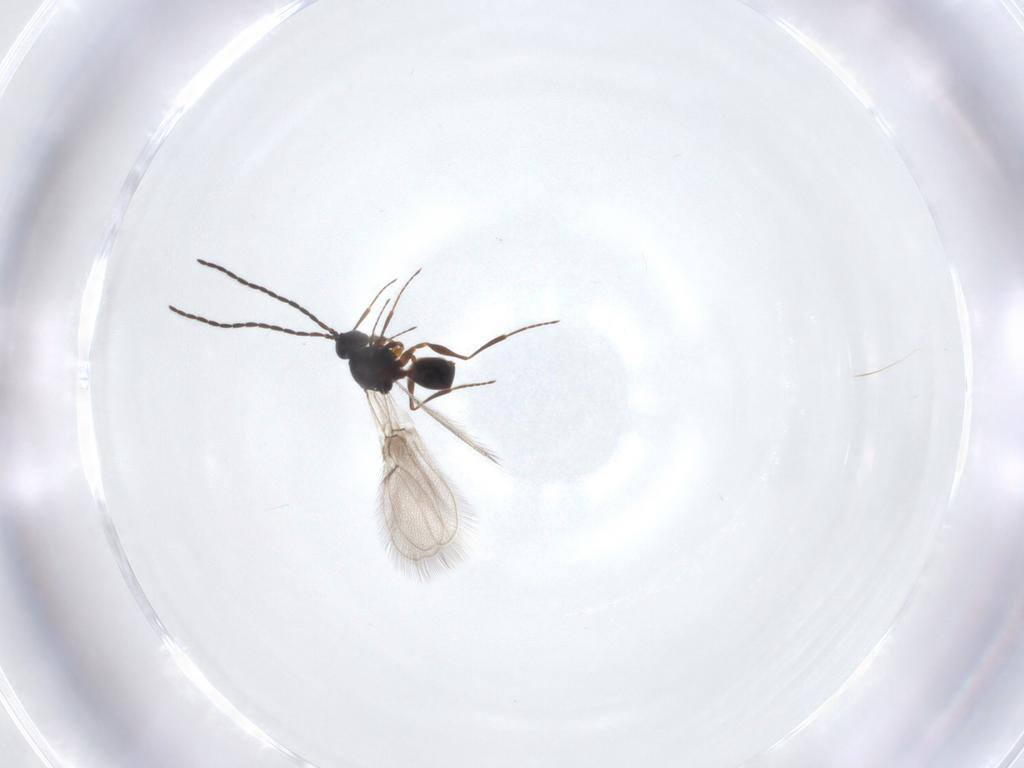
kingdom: Animalia
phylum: Arthropoda
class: Insecta
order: Hymenoptera
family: Figitidae
